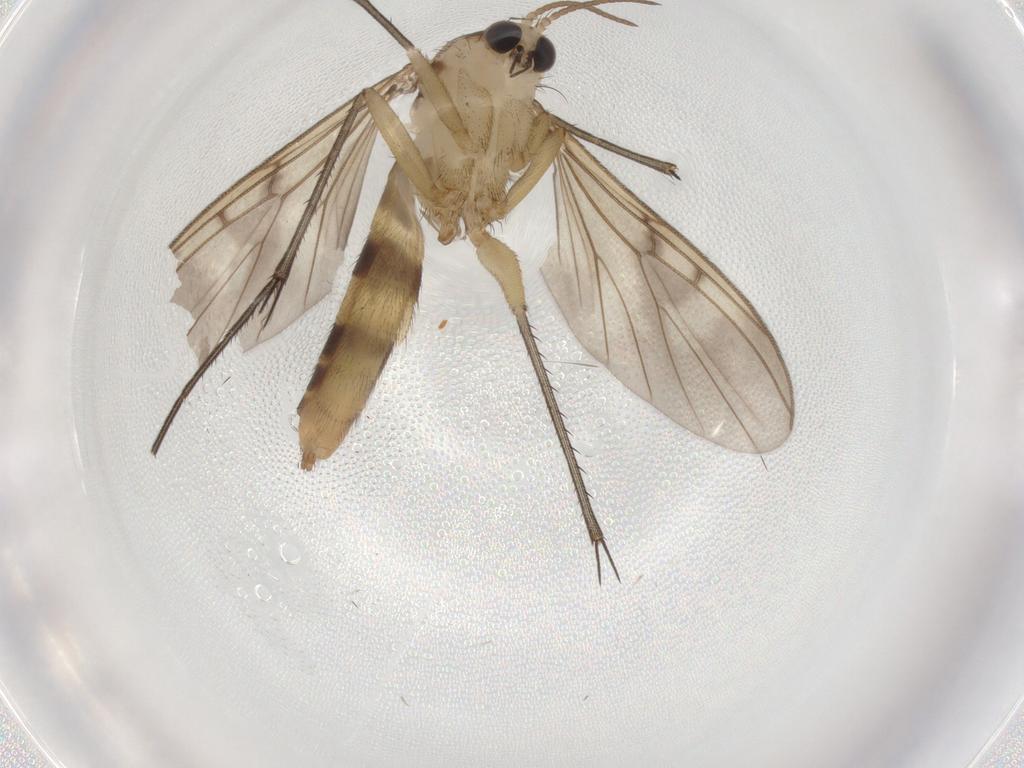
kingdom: Animalia
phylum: Arthropoda
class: Insecta
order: Diptera
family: Mycetophilidae
